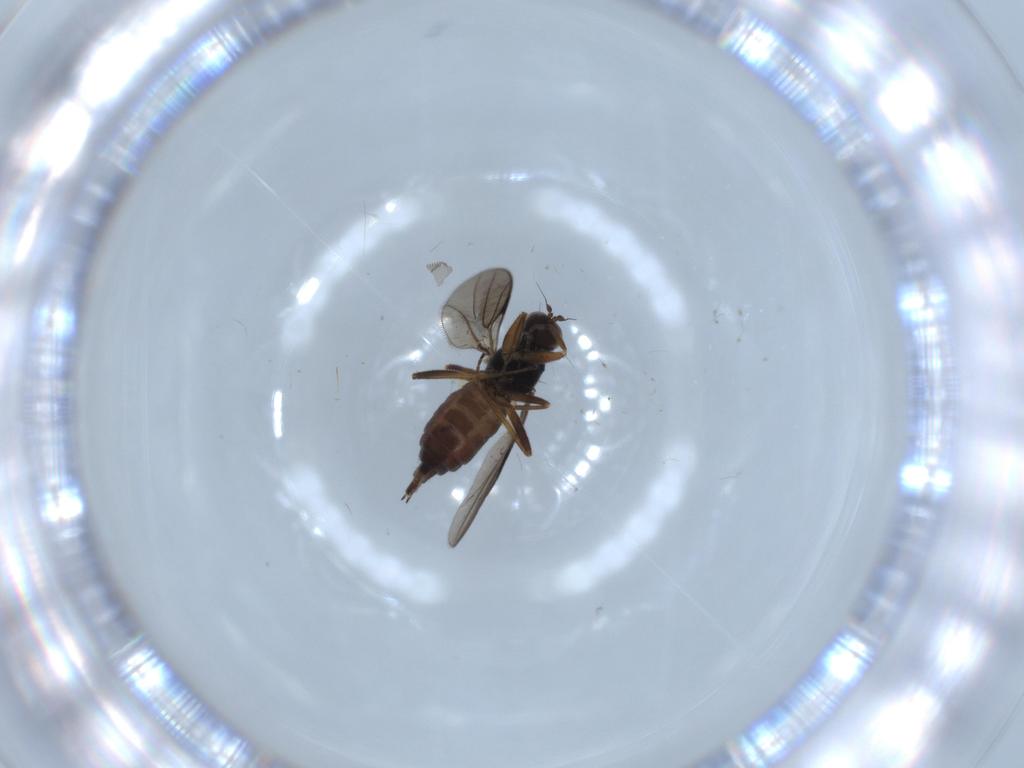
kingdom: Animalia
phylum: Arthropoda
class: Insecta
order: Diptera
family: Hybotidae
